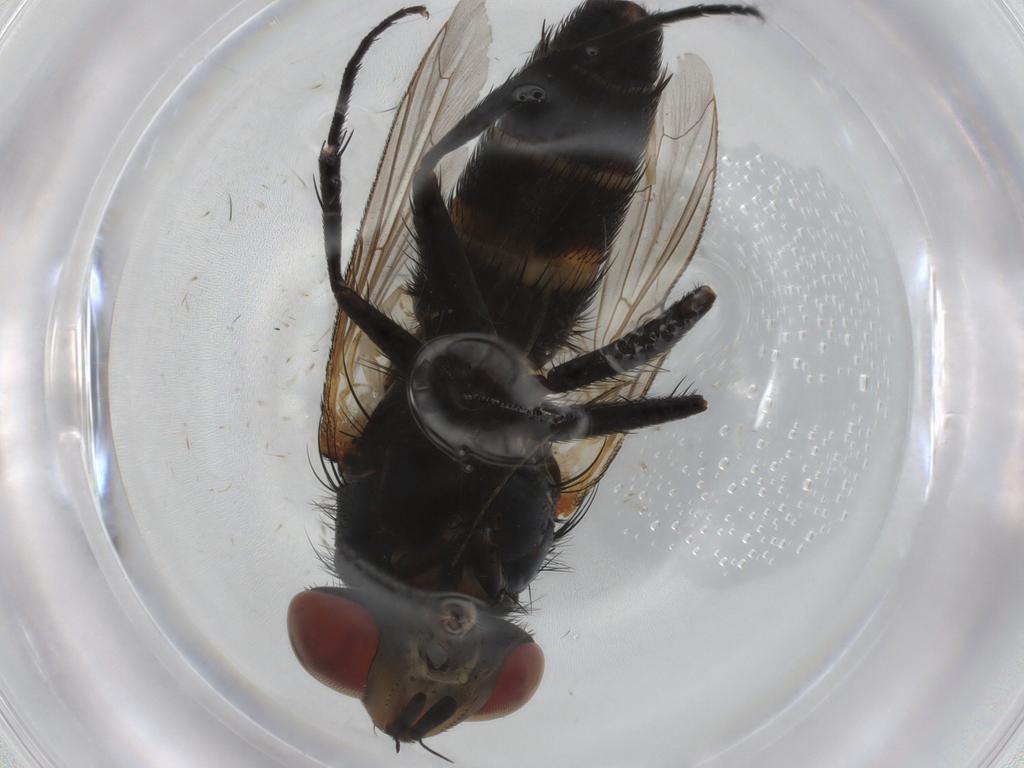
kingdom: Animalia
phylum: Arthropoda
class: Insecta
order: Diptera
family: Anthomyiidae
